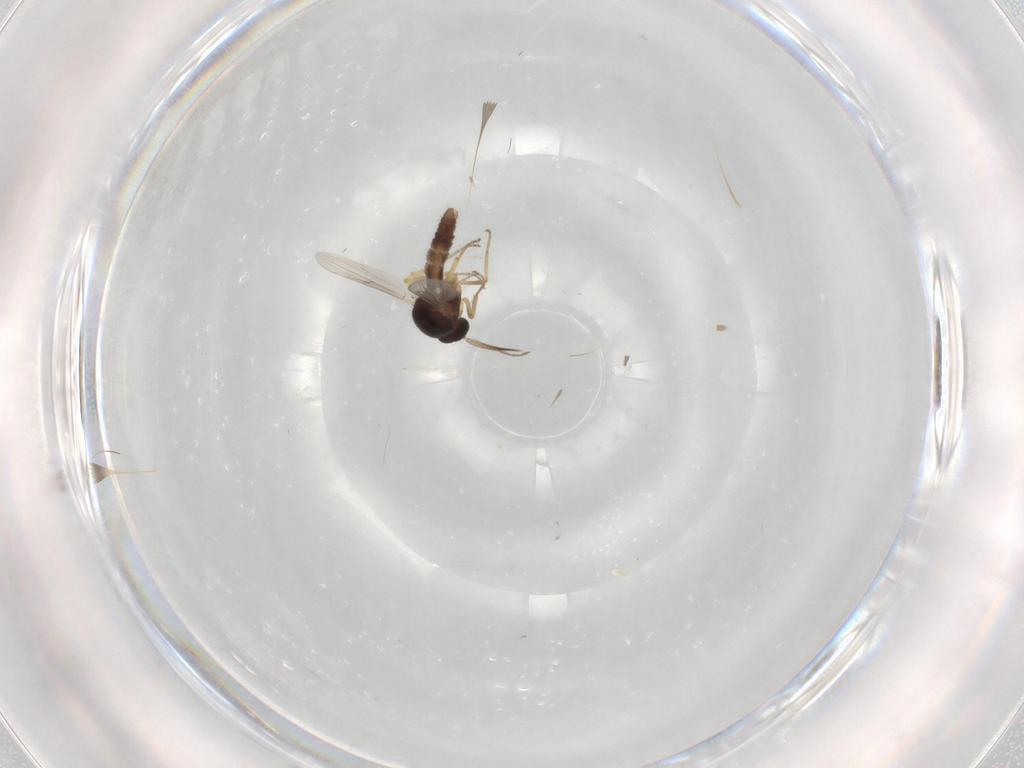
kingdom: Animalia
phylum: Arthropoda
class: Insecta
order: Diptera
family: Ceratopogonidae
